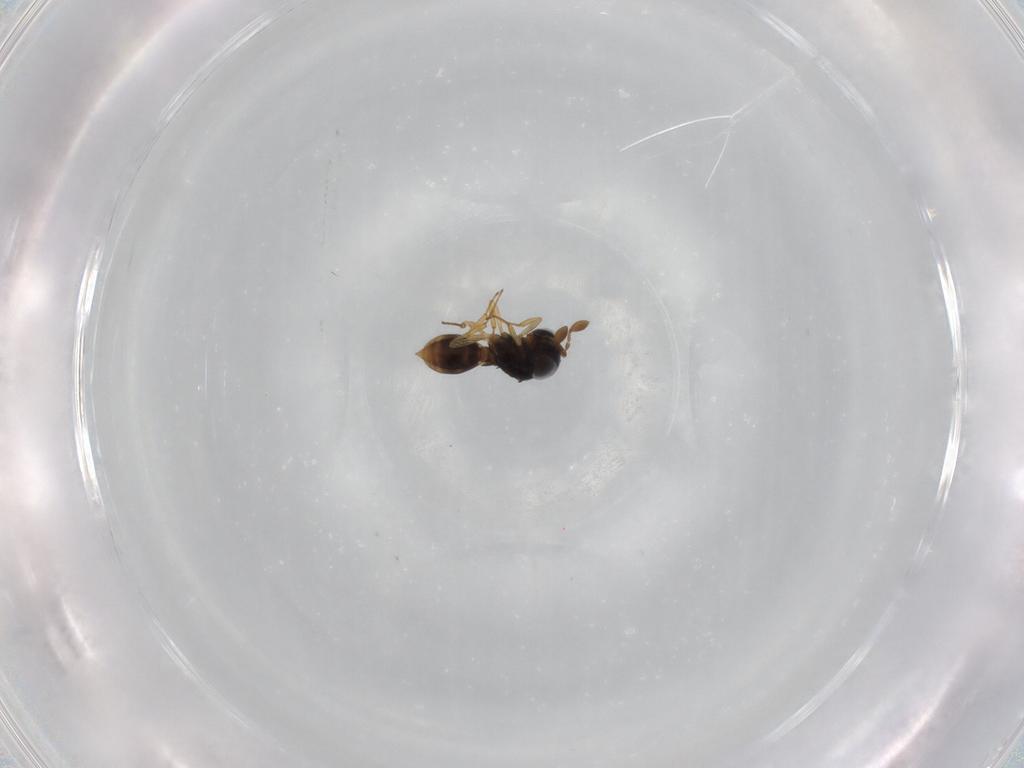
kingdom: Animalia
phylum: Arthropoda
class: Insecta
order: Hymenoptera
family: Scelionidae
